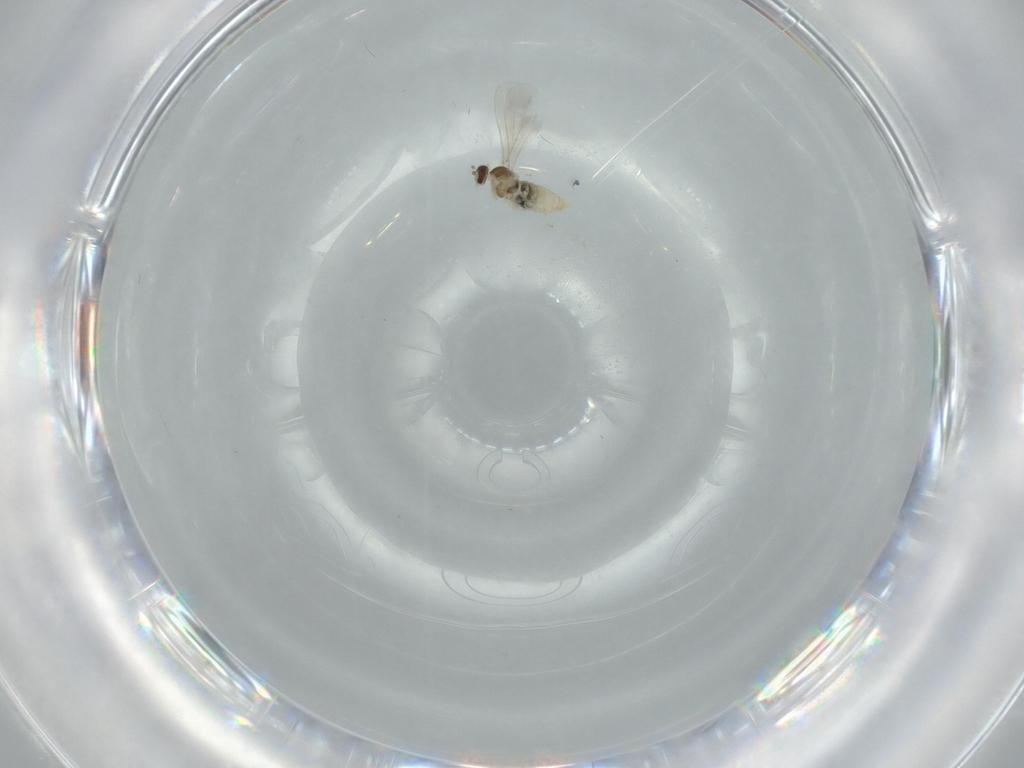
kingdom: Animalia
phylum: Arthropoda
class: Insecta
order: Diptera
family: Cecidomyiidae
